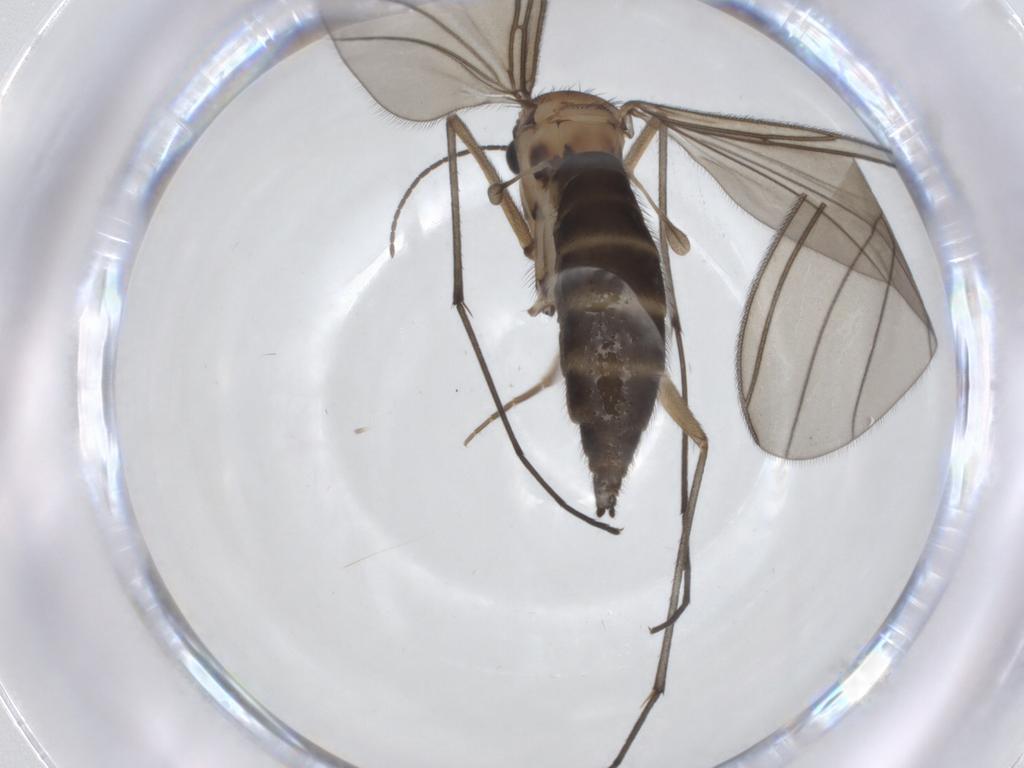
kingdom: Animalia
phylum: Arthropoda
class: Insecta
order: Diptera
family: Sciaridae
